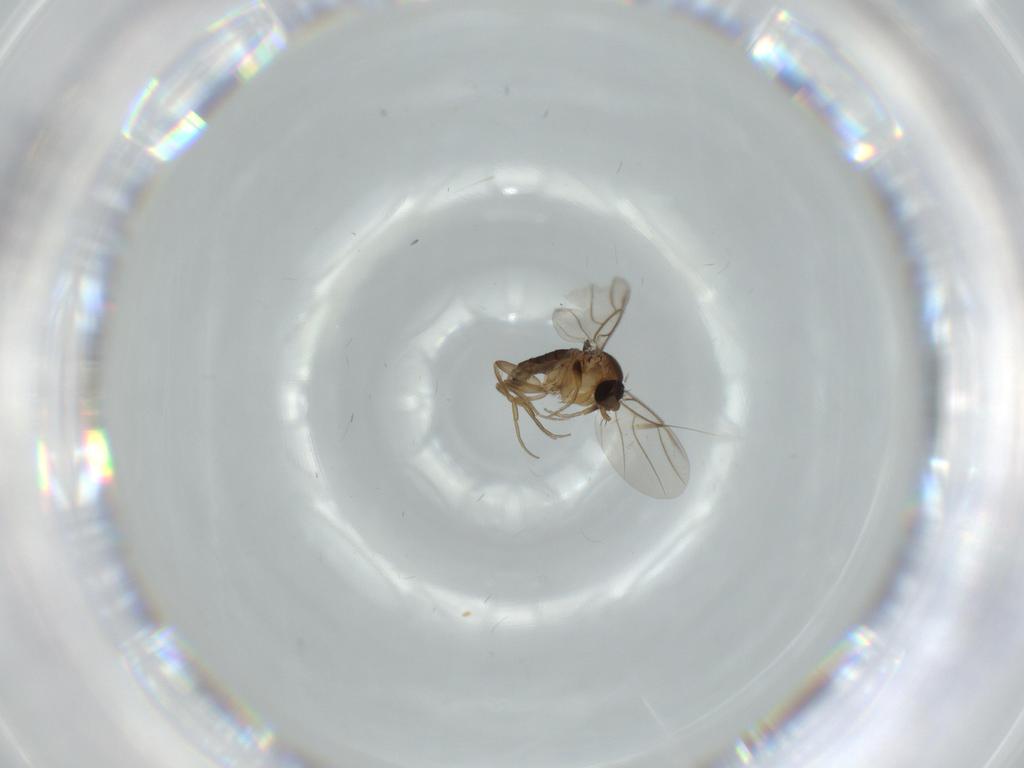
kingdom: Animalia
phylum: Arthropoda
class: Insecta
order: Diptera
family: Phoridae
